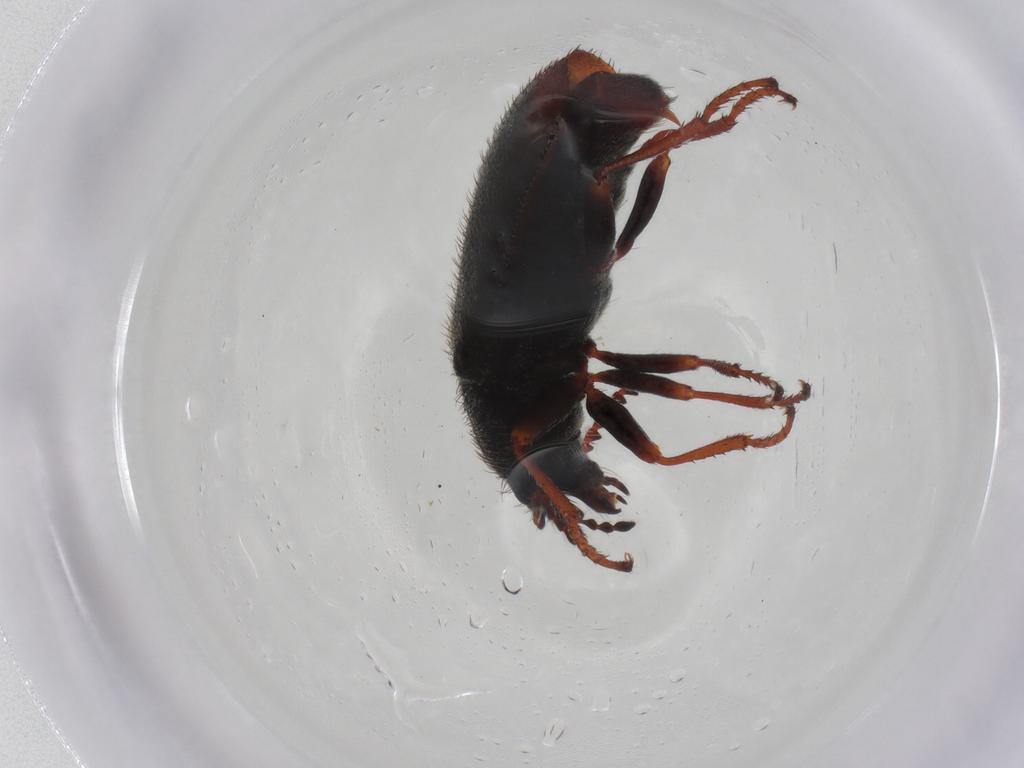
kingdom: Animalia
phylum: Arthropoda
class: Insecta
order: Coleoptera
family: Melyridae
